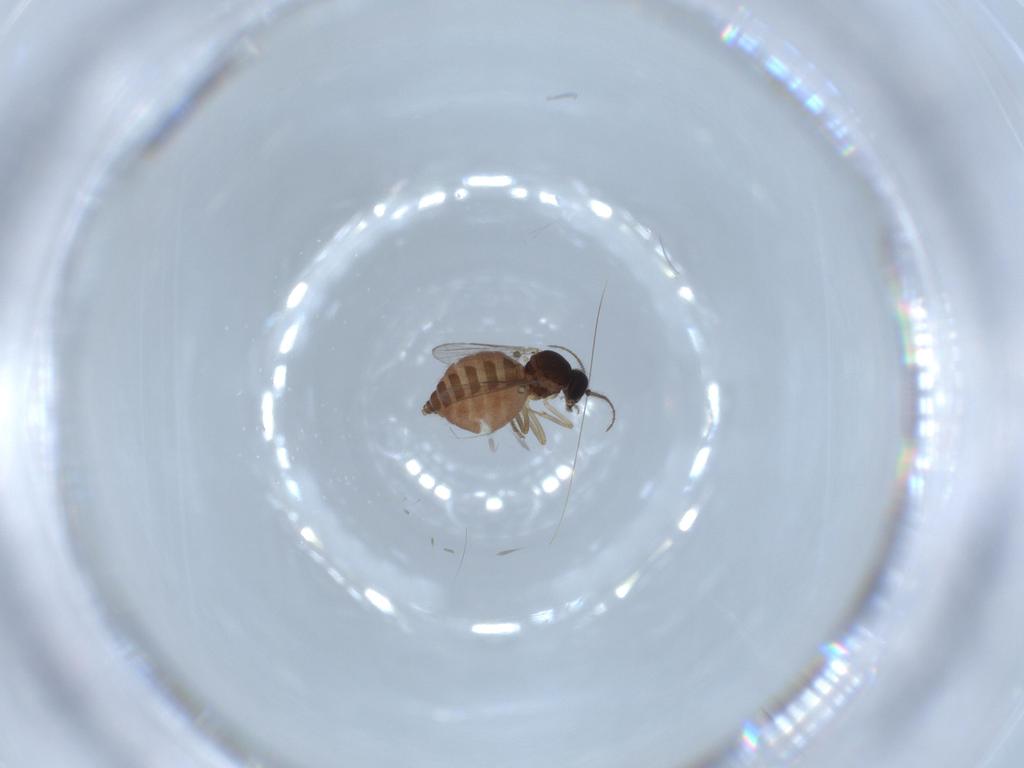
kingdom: Animalia
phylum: Arthropoda
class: Insecta
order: Diptera
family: Ceratopogonidae
